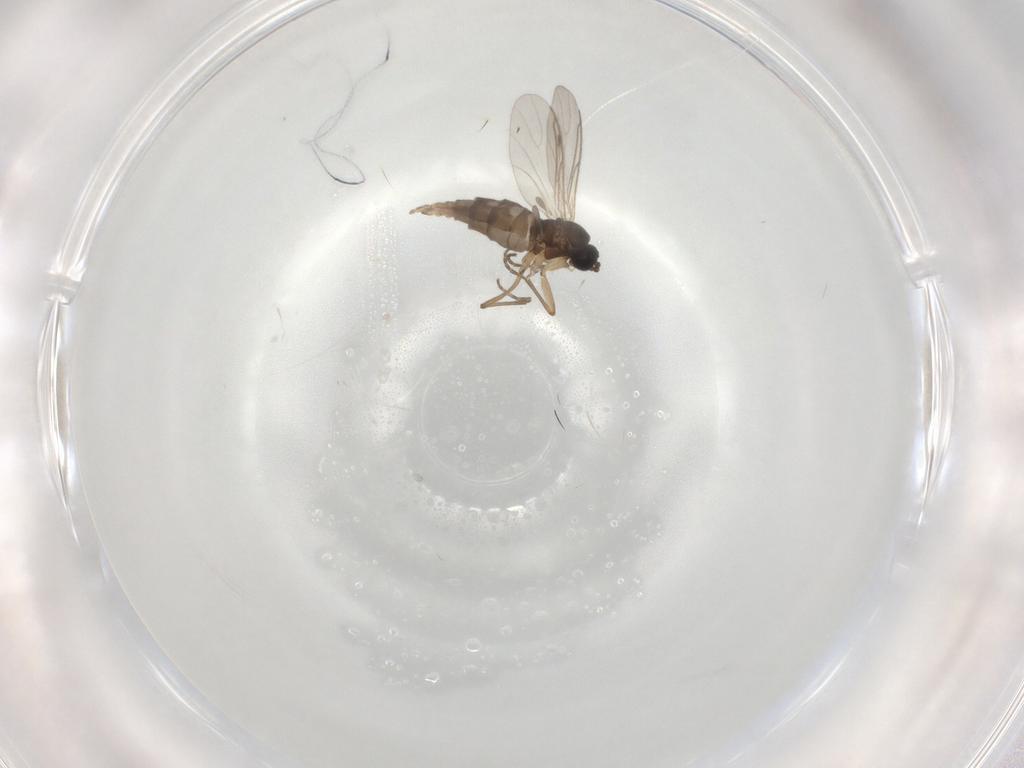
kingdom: Animalia
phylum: Arthropoda
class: Insecta
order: Diptera
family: Sciaridae
